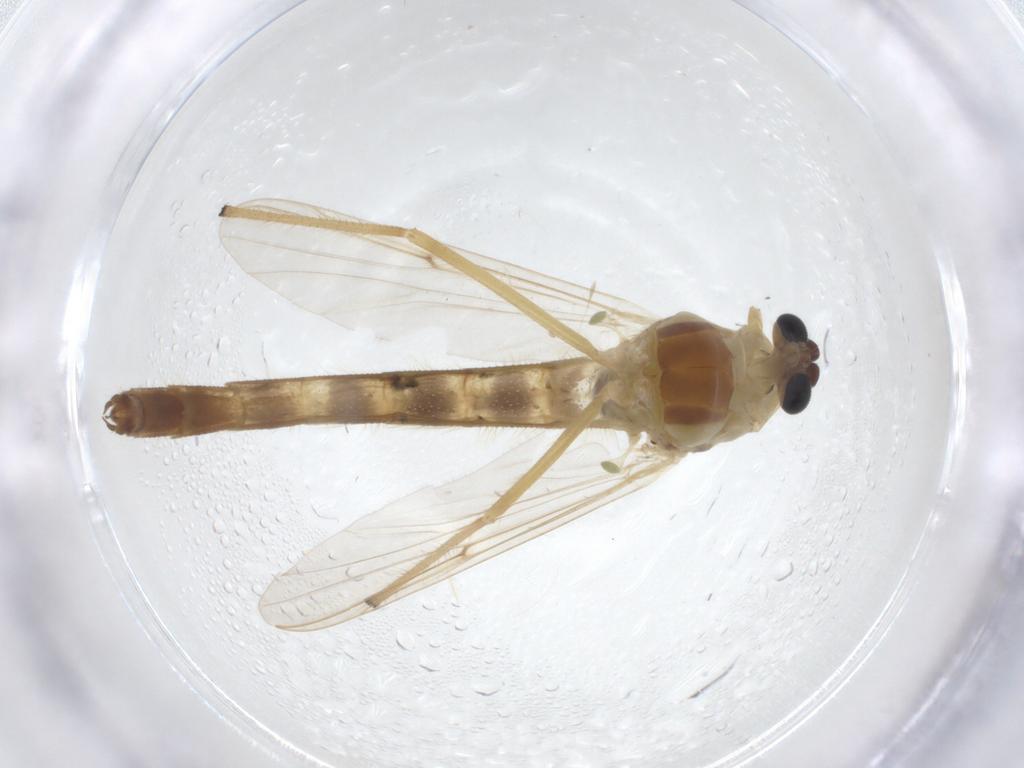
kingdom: Animalia
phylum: Arthropoda
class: Insecta
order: Diptera
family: Chironomidae
